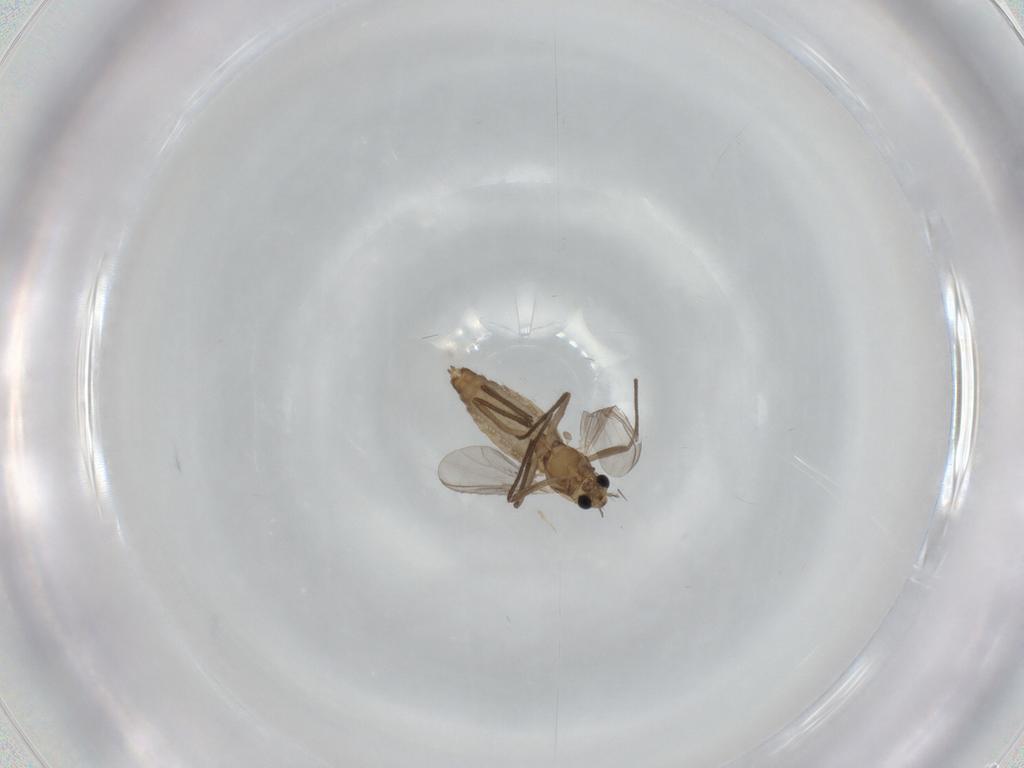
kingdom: Animalia
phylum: Arthropoda
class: Insecta
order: Diptera
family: Chironomidae
